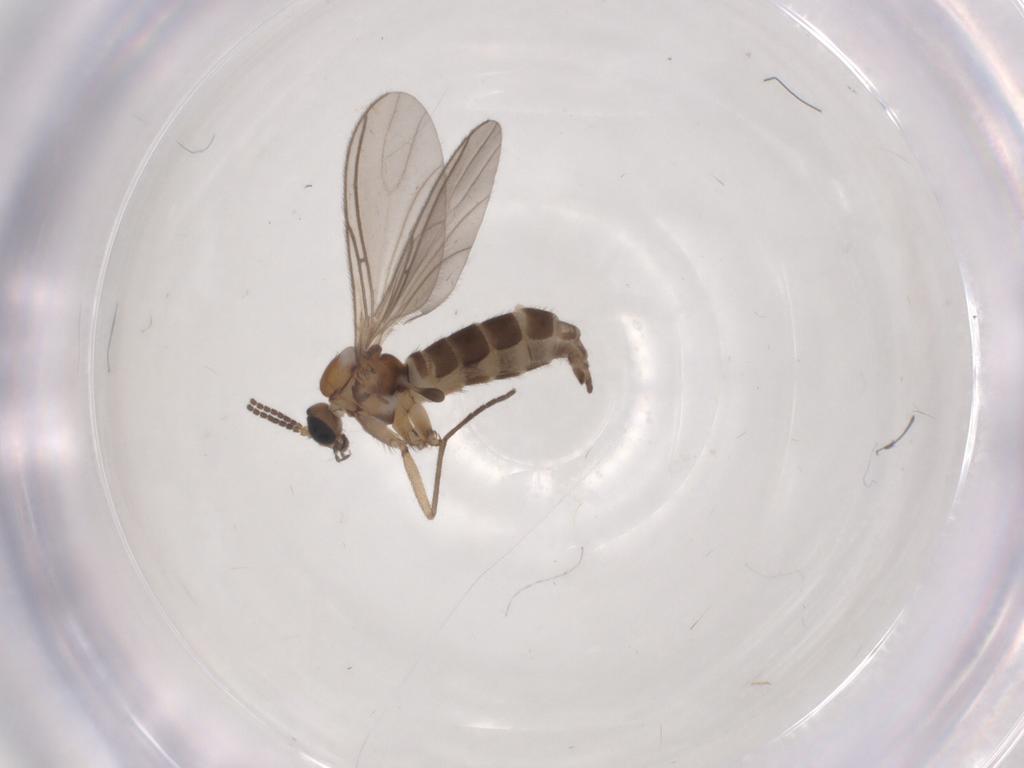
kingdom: Animalia
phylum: Arthropoda
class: Insecta
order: Diptera
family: Sciaridae
